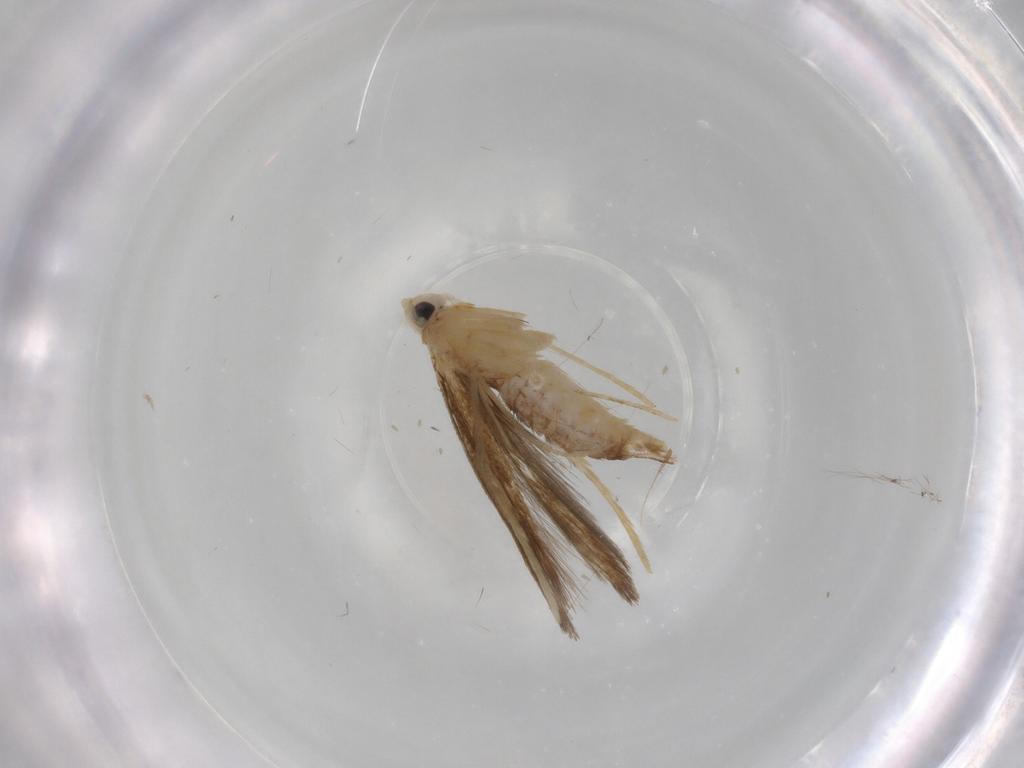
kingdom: Animalia
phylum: Arthropoda
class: Insecta
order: Lepidoptera
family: Lyonetiidae
